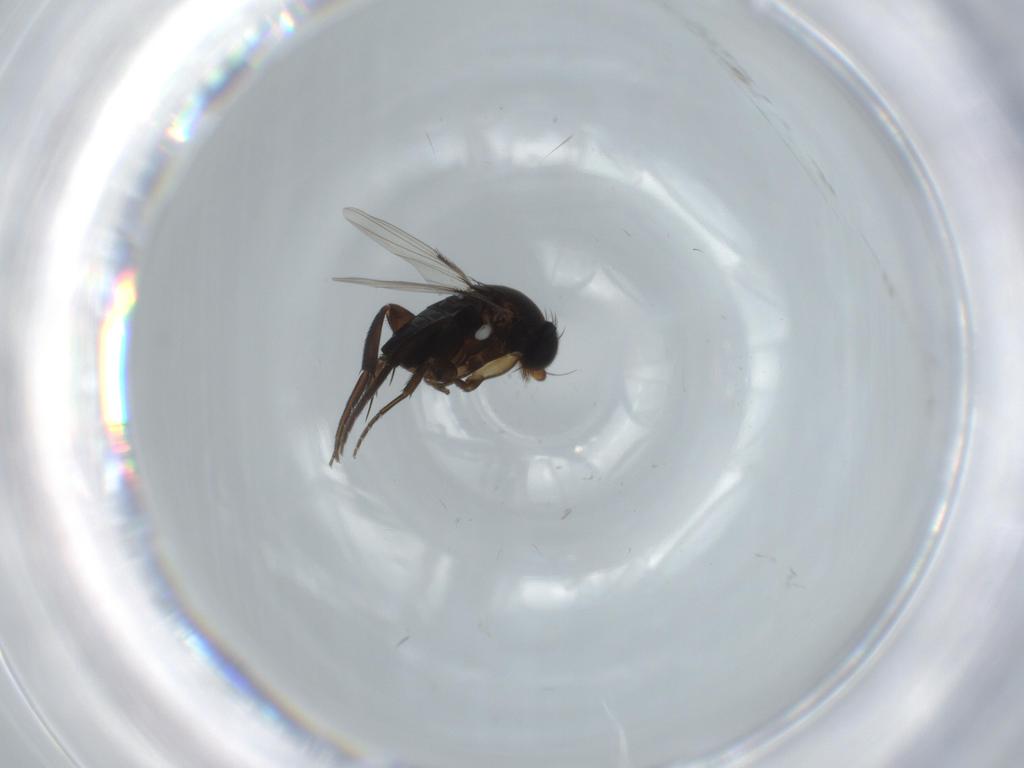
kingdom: Animalia
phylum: Arthropoda
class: Insecta
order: Diptera
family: Phoridae
